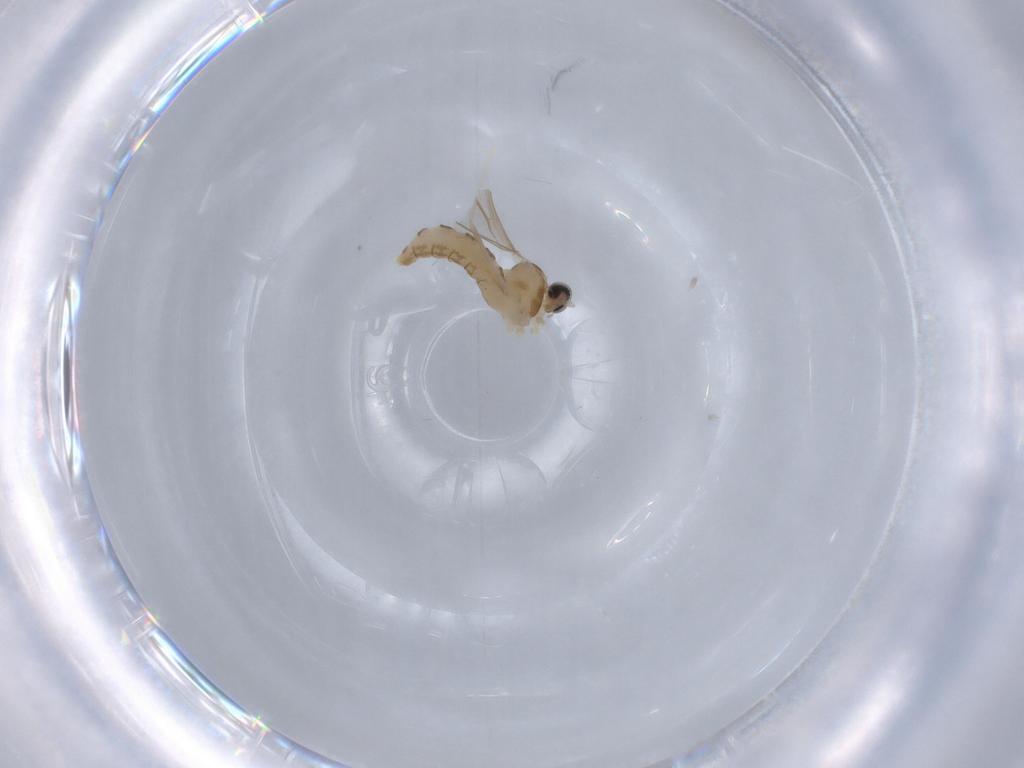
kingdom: Animalia
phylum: Arthropoda
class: Insecta
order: Diptera
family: Cecidomyiidae
